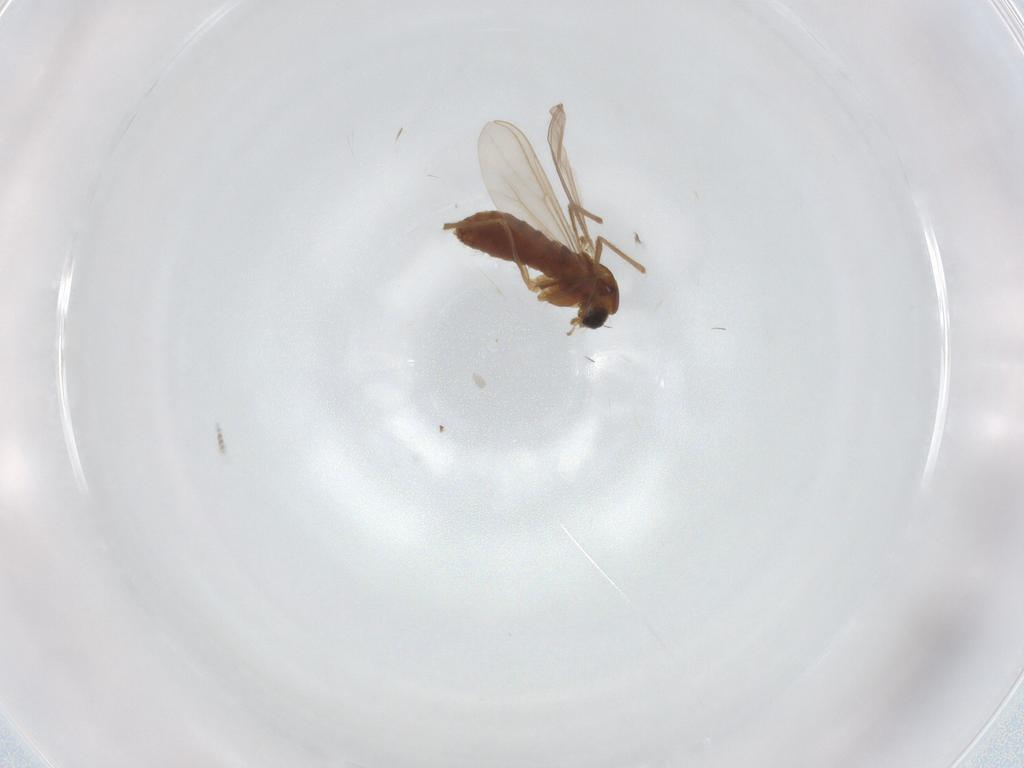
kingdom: Animalia
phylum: Arthropoda
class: Insecta
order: Diptera
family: Chironomidae
